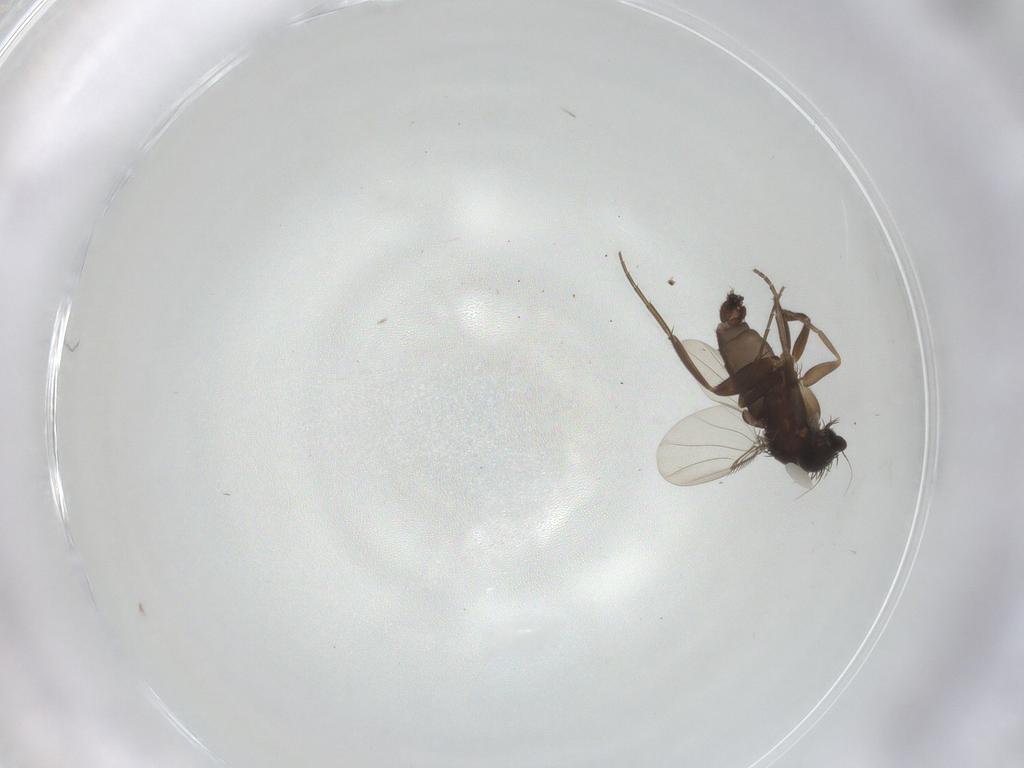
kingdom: Animalia
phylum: Arthropoda
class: Insecta
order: Diptera
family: Phoridae
